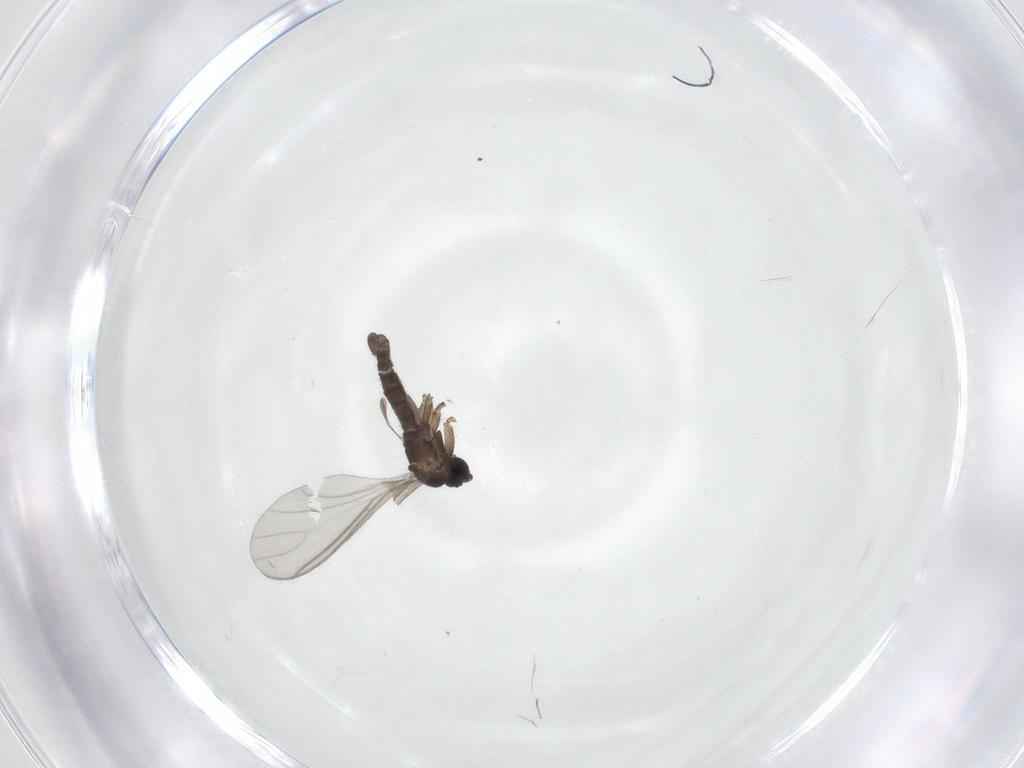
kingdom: Animalia
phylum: Arthropoda
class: Insecta
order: Diptera
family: Sciaridae
